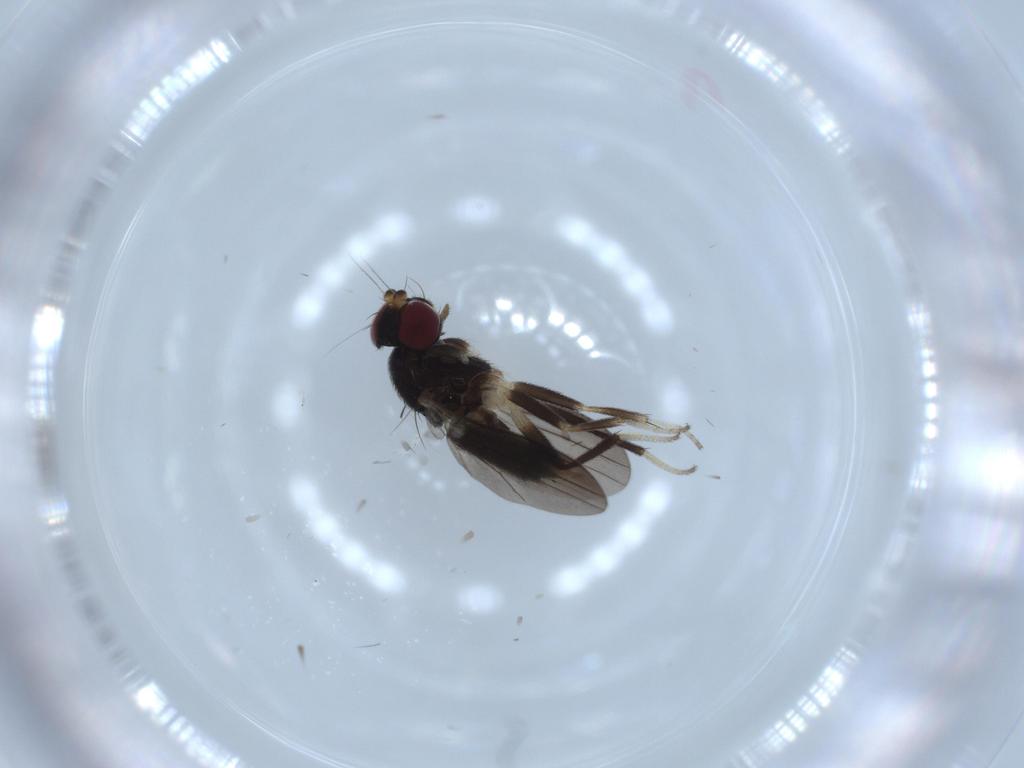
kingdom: Animalia
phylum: Arthropoda
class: Insecta
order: Diptera
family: Clusiidae
